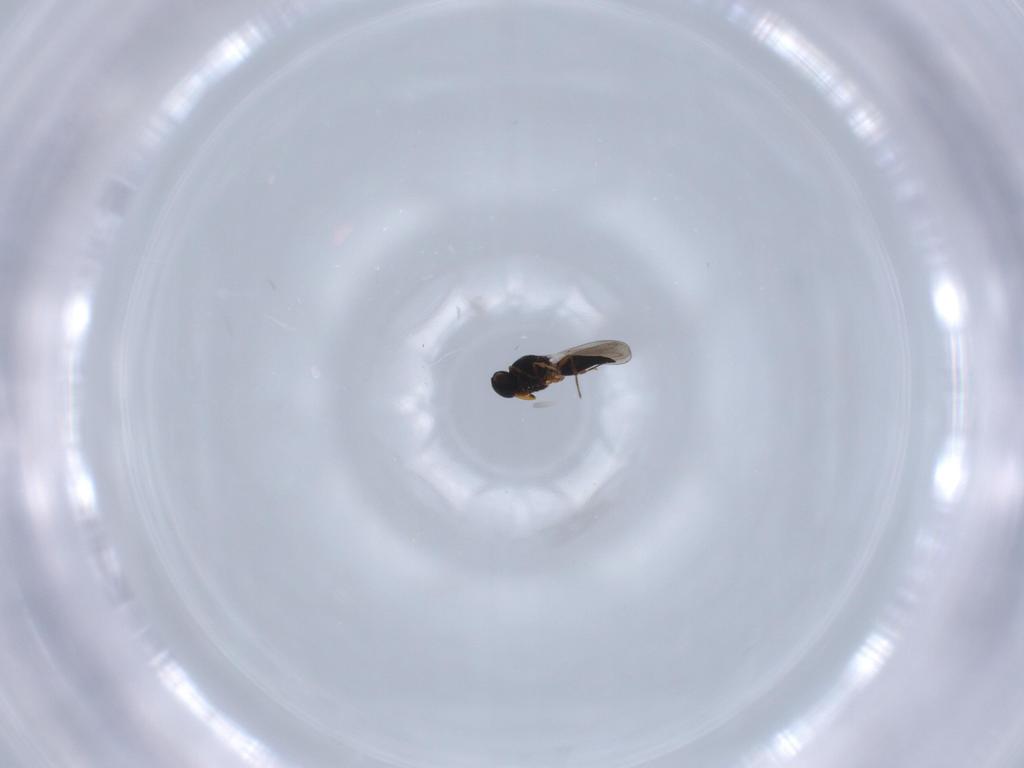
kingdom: Animalia
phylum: Arthropoda
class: Insecta
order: Hymenoptera
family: Platygastridae
